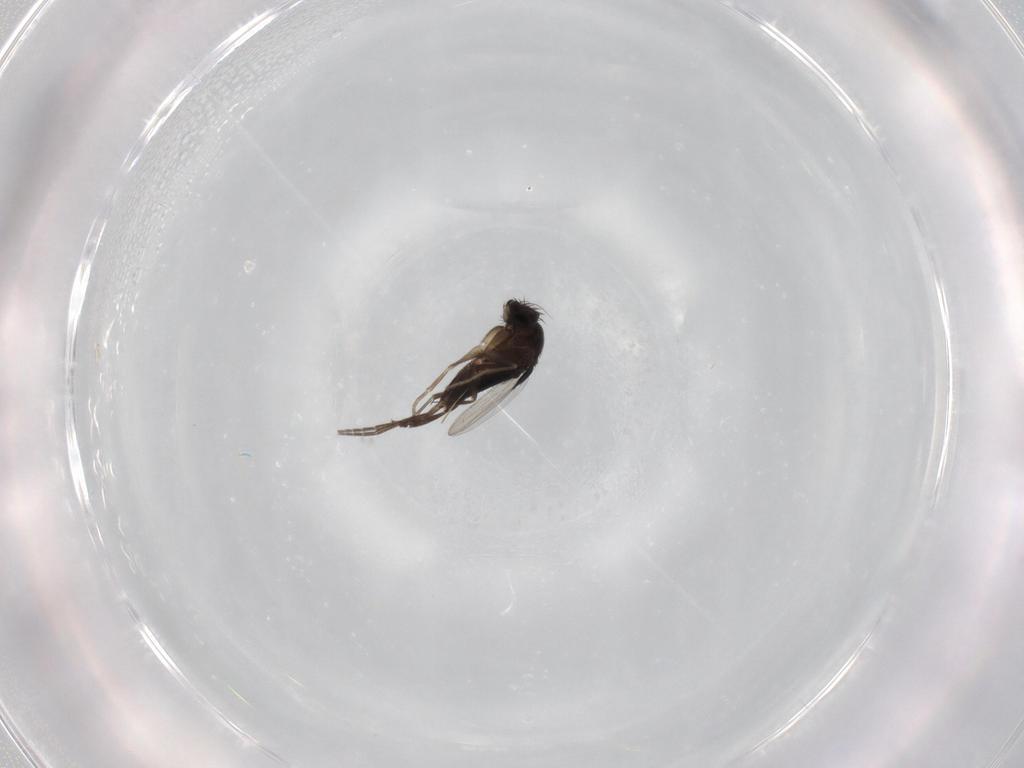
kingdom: Animalia
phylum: Arthropoda
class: Insecta
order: Diptera
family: Phoridae
